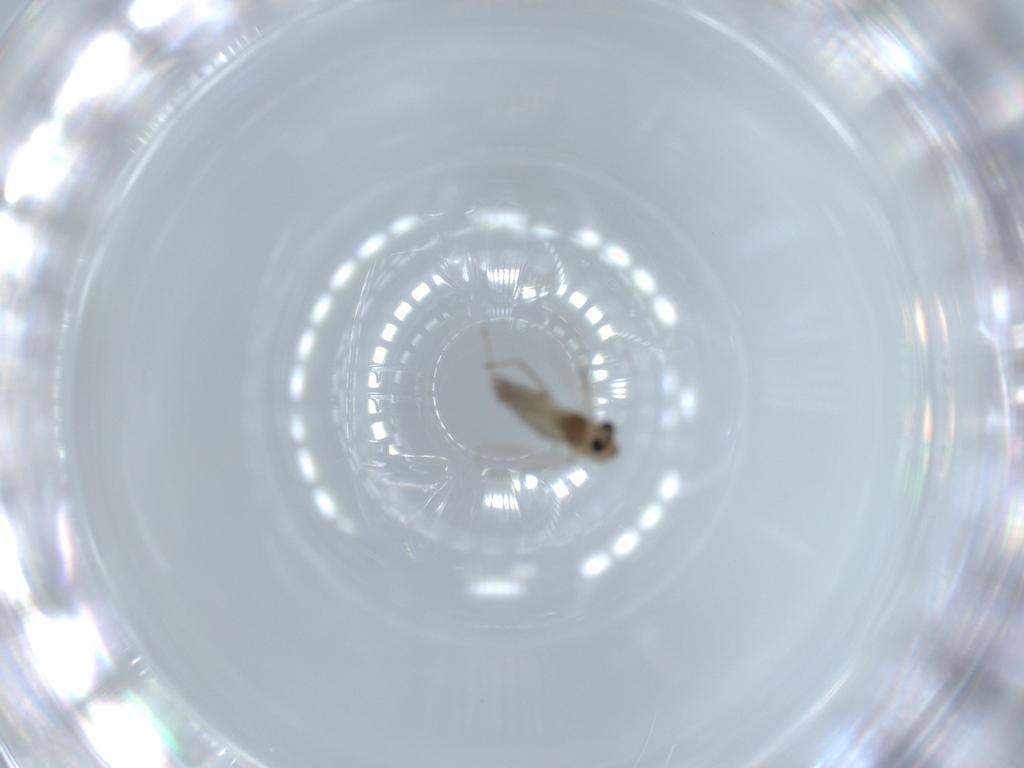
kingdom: Animalia
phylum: Arthropoda
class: Insecta
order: Diptera
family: Chironomidae
